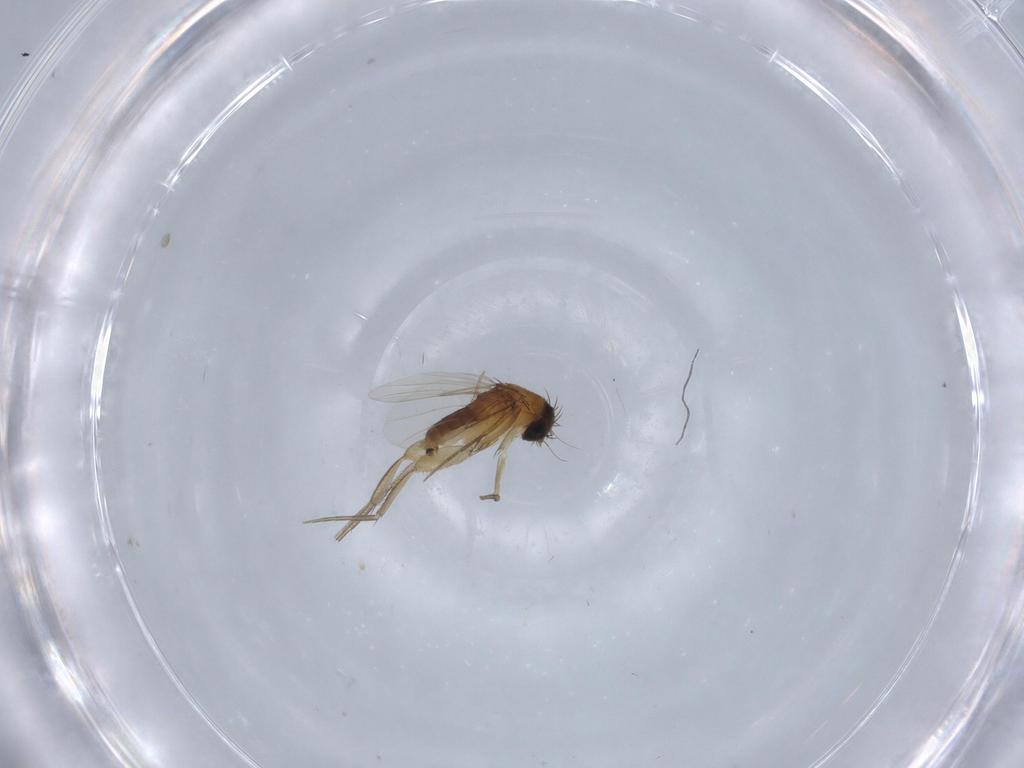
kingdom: Animalia
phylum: Arthropoda
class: Insecta
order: Diptera
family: Phoridae
